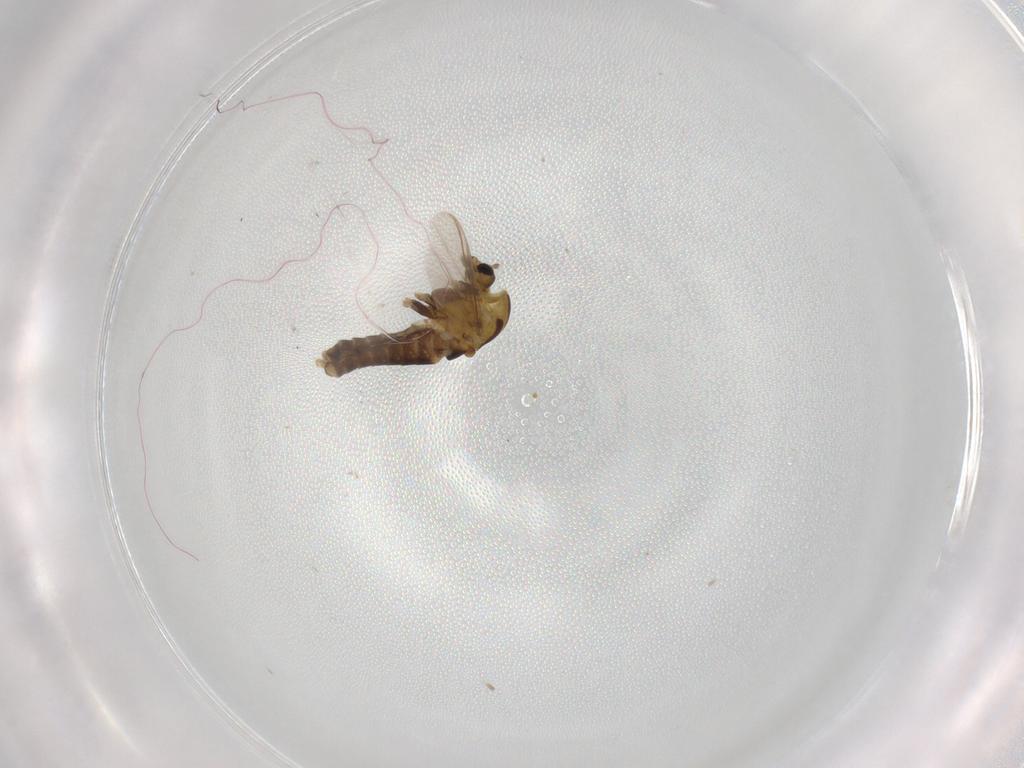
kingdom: Animalia
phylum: Arthropoda
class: Insecta
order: Diptera
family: Chironomidae
